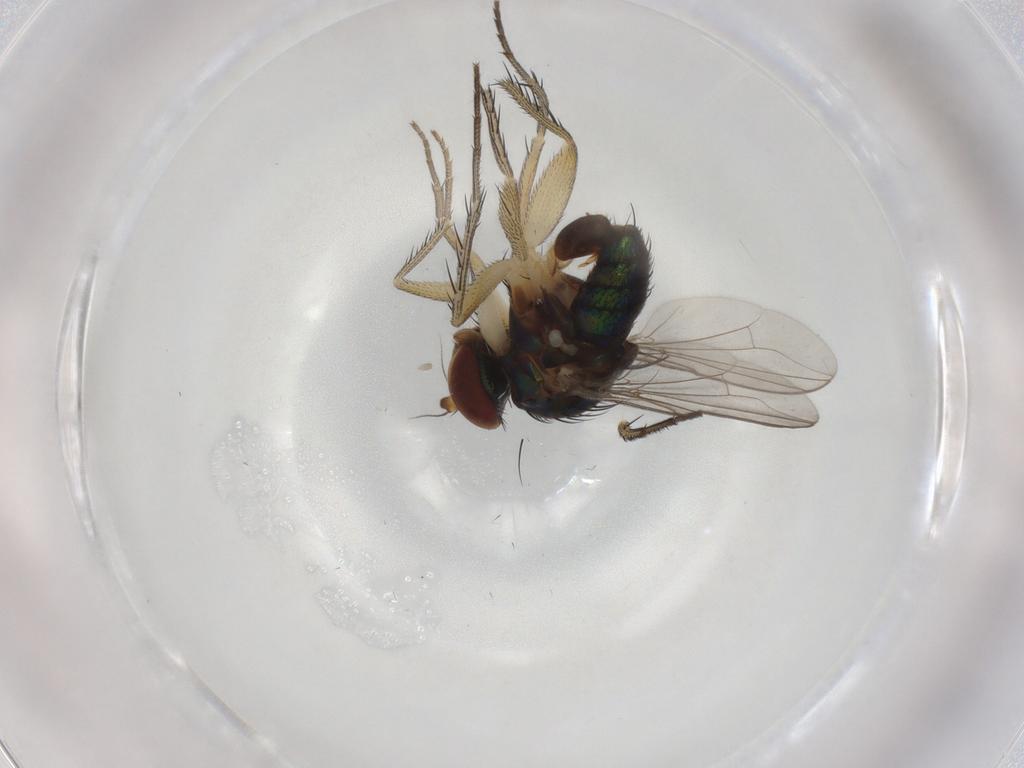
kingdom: Animalia
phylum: Arthropoda
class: Insecta
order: Diptera
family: Dolichopodidae
